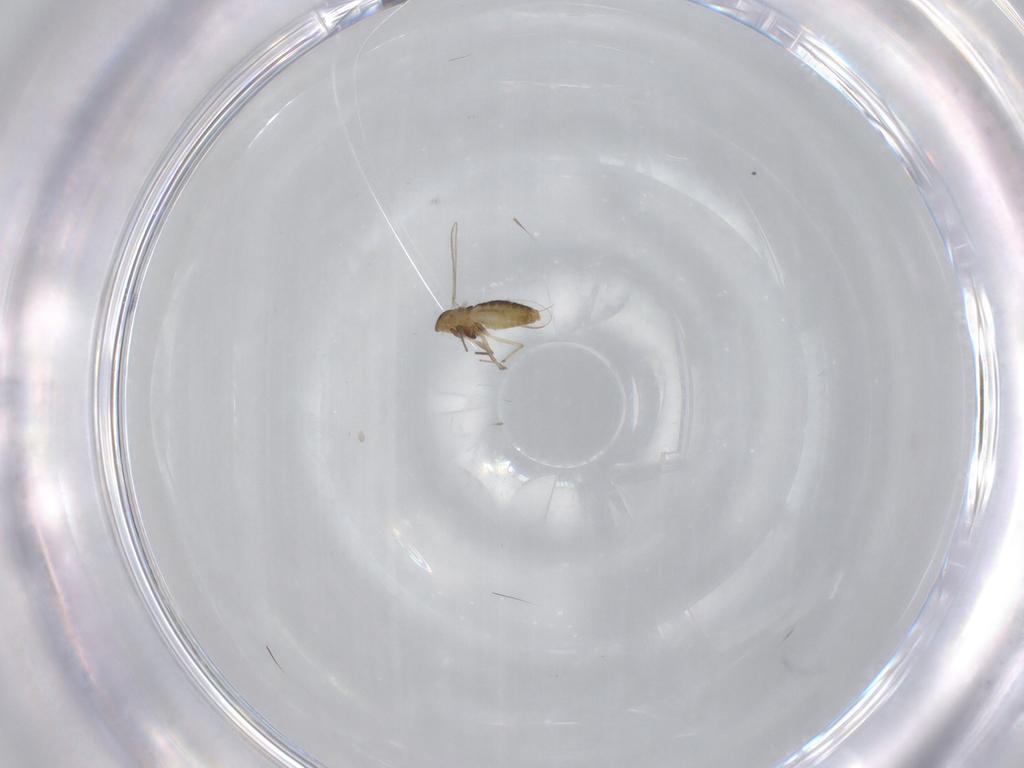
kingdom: Animalia
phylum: Arthropoda
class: Insecta
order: Diptera
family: Chironomidae
